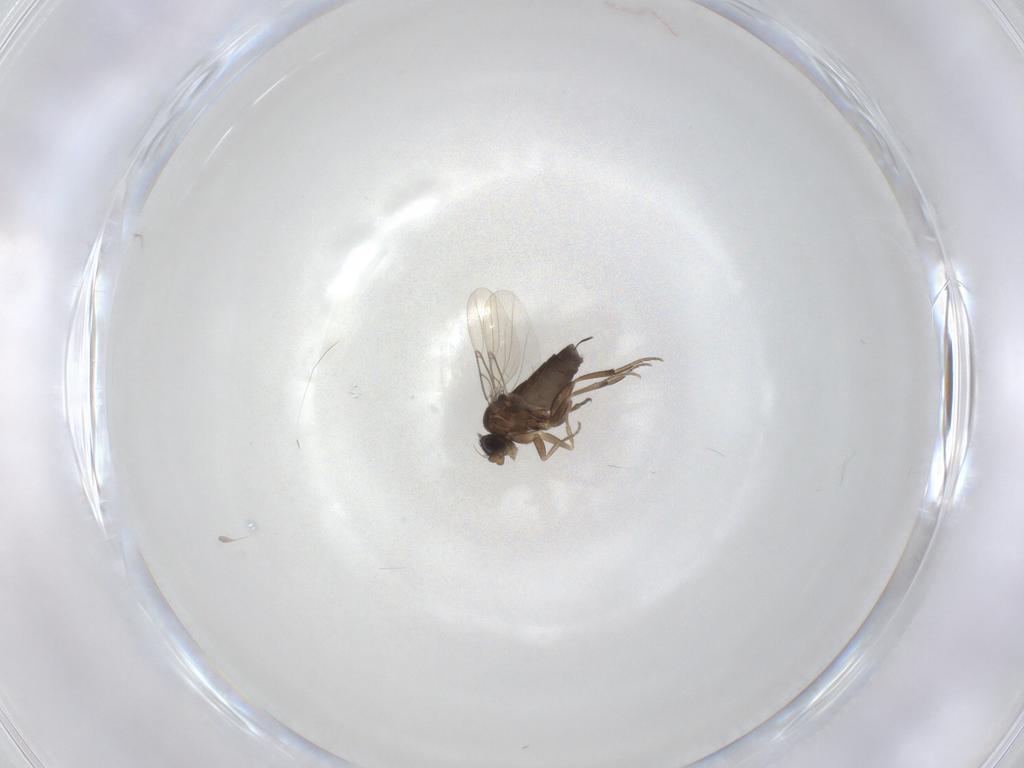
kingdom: Animalia
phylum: Arthropoda
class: Insecta
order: Diptera
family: Phoridae
